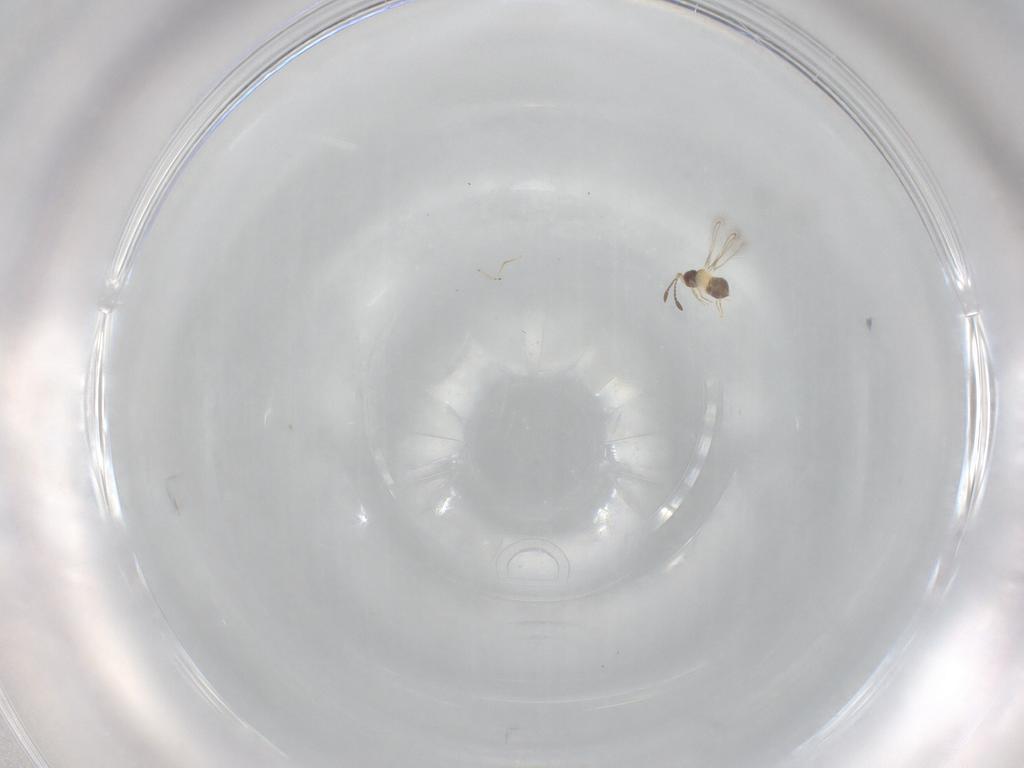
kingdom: Animalia
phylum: Arthropoda
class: Insecta
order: Hymenoptera
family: Mymaridae
